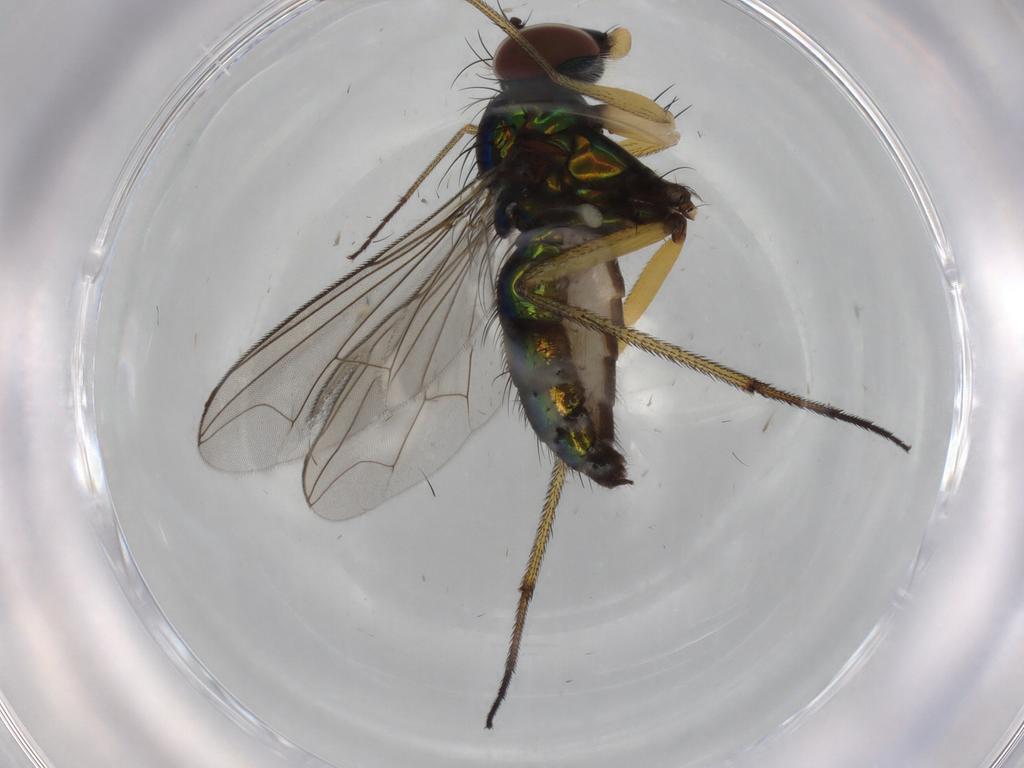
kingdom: Animalia
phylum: Arthropoda
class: Insecta
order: Diptera
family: Dolichopodidae
